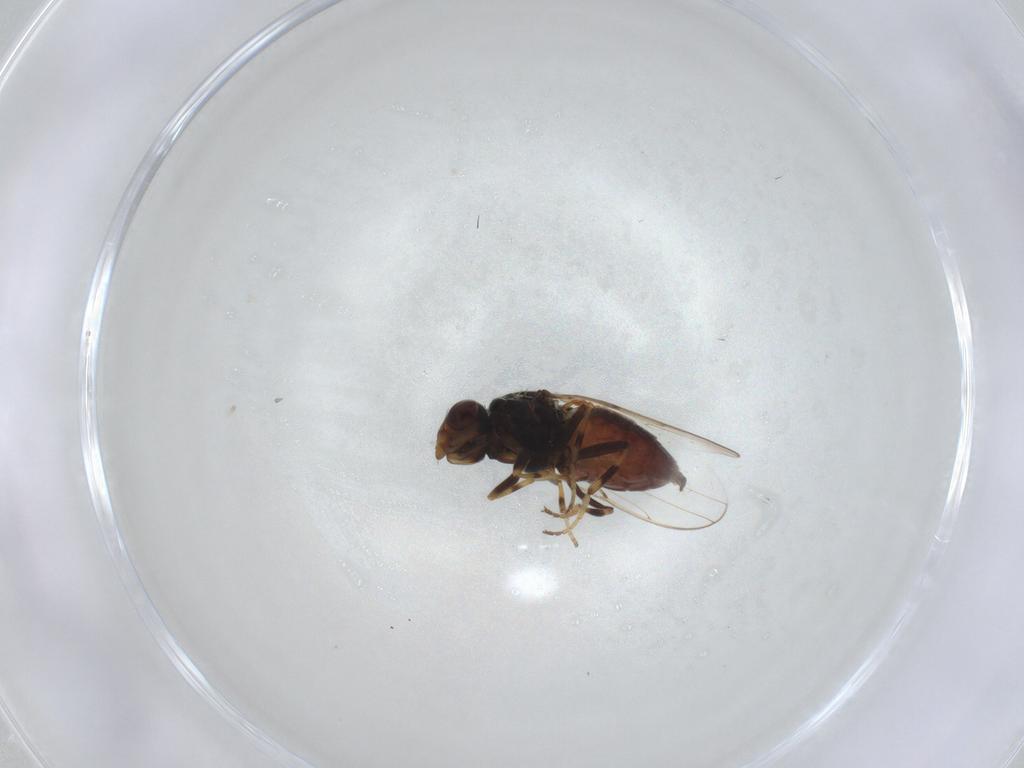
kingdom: Animalia
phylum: Arthropoda
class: Insecta
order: Diptera
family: Chloropidae
